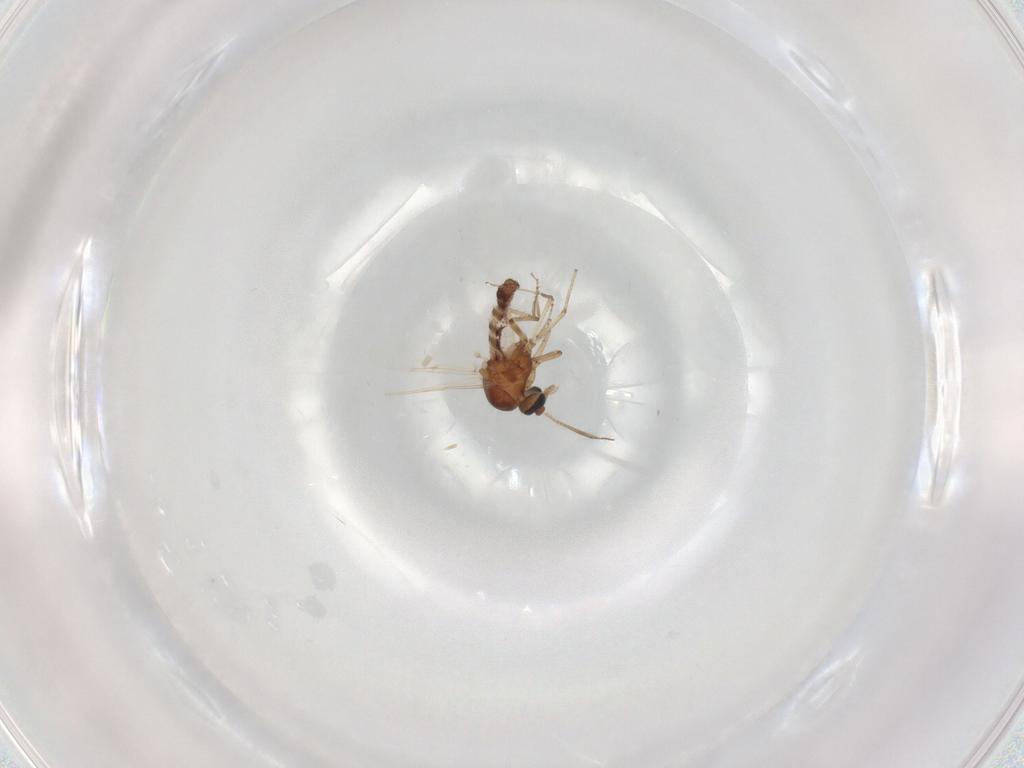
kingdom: Animalia
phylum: Arthropoda
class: Insecta
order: Diptera
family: Ceratopogonidae
